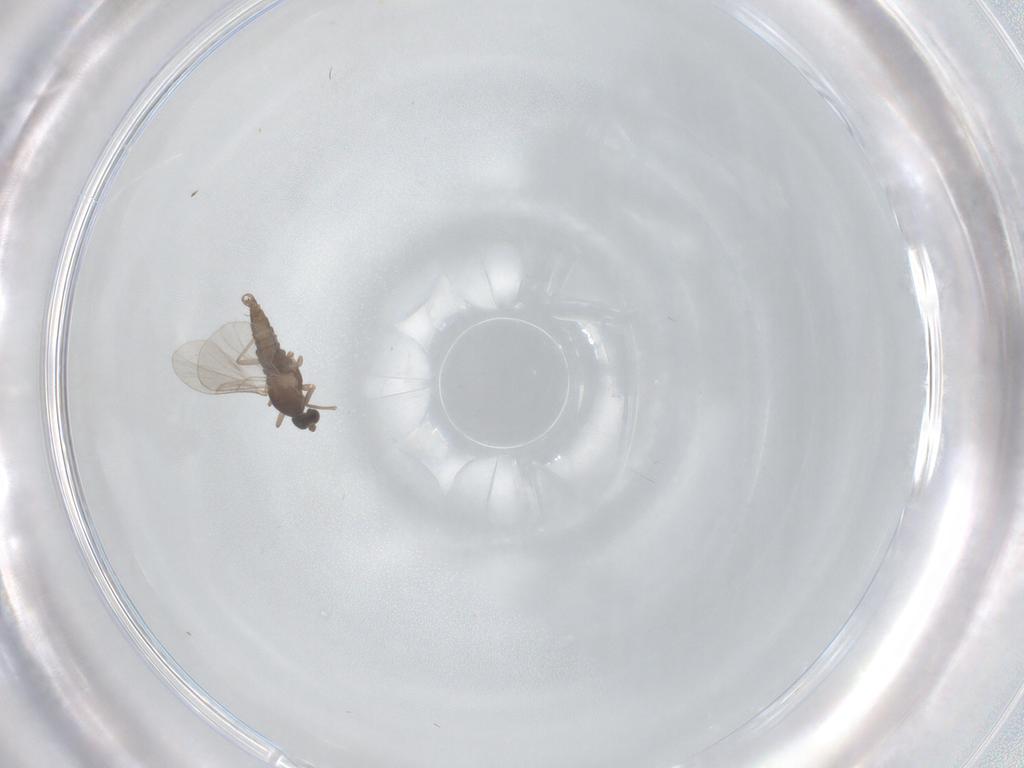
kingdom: Animalia
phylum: Arthropoda
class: Insecta
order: Diptera
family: Cecidomyiidae
